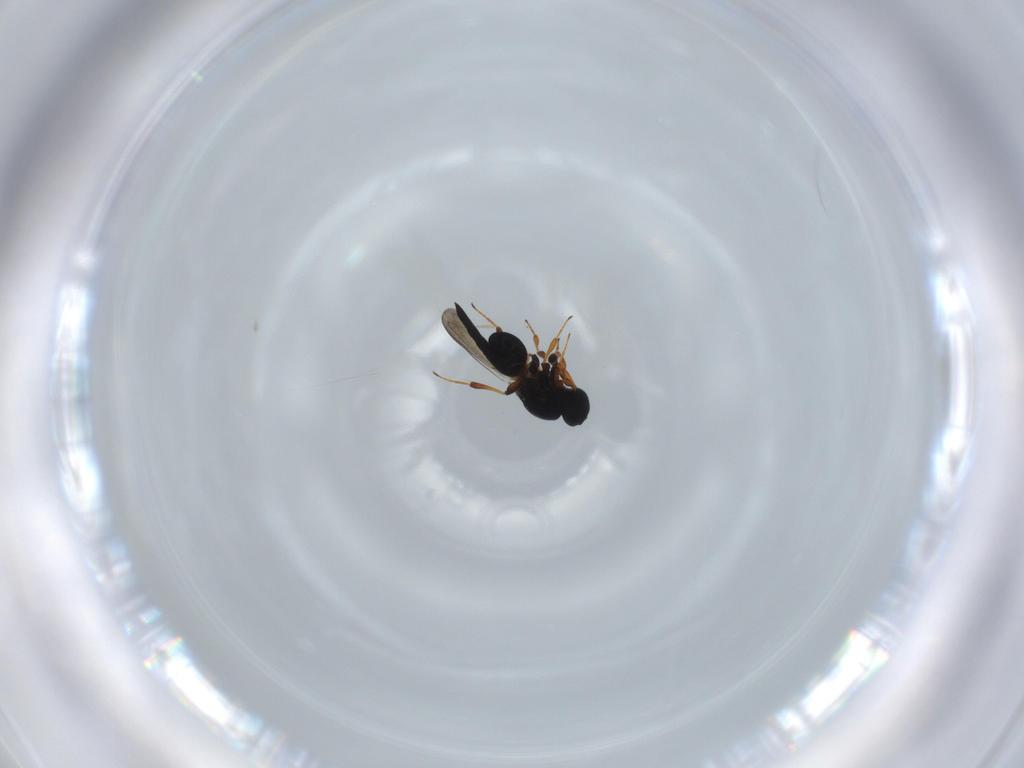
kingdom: Animalia
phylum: Arthropoda
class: Insecta
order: Hymenoptera
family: Platygastridae
